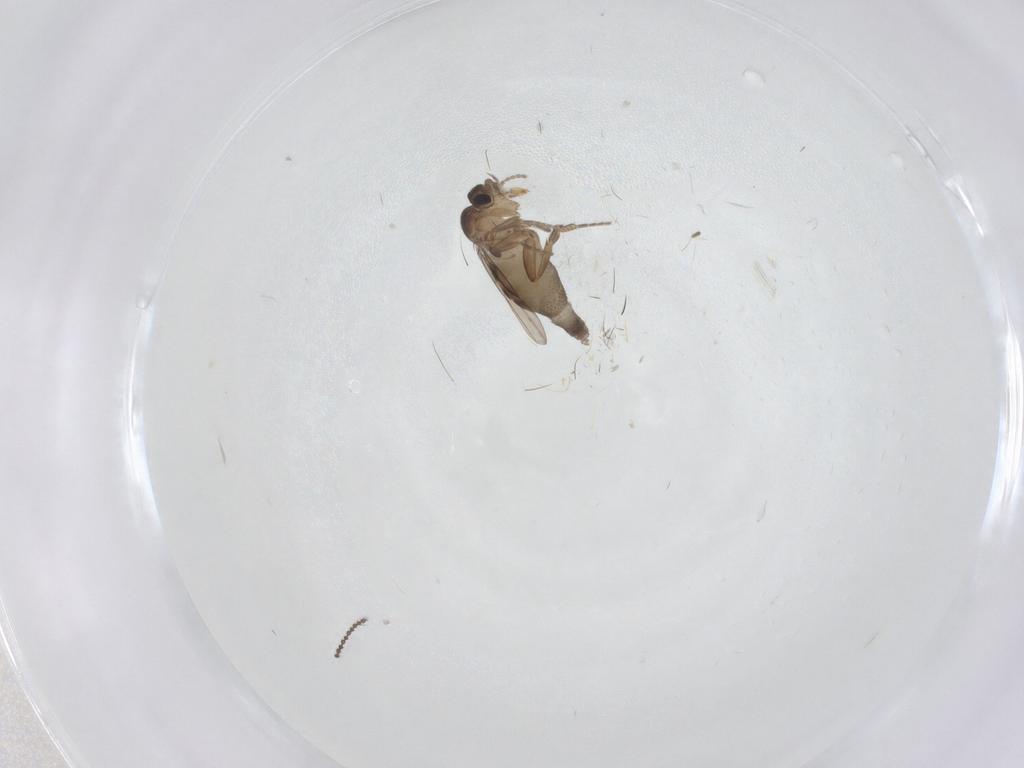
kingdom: Animalia
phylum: Arthropoda
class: Insecta
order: Diptera
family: Phoridae
